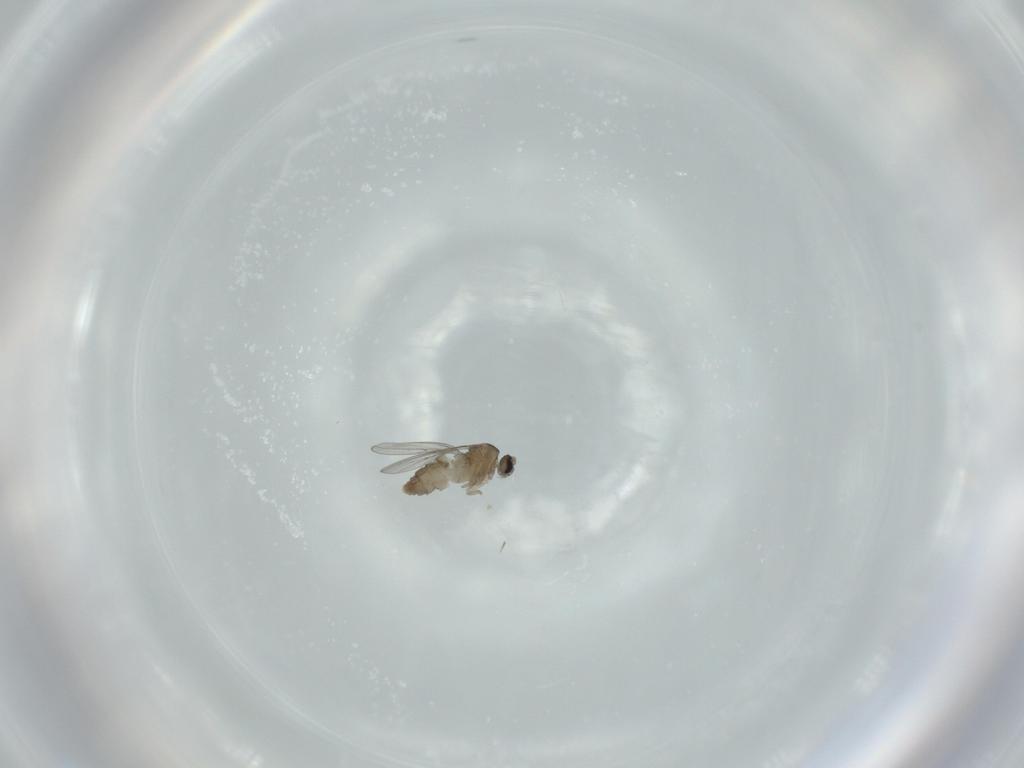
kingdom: Animalia
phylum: Arthropoda
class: Insecta
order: Diptera
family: Cecidomyiidae
